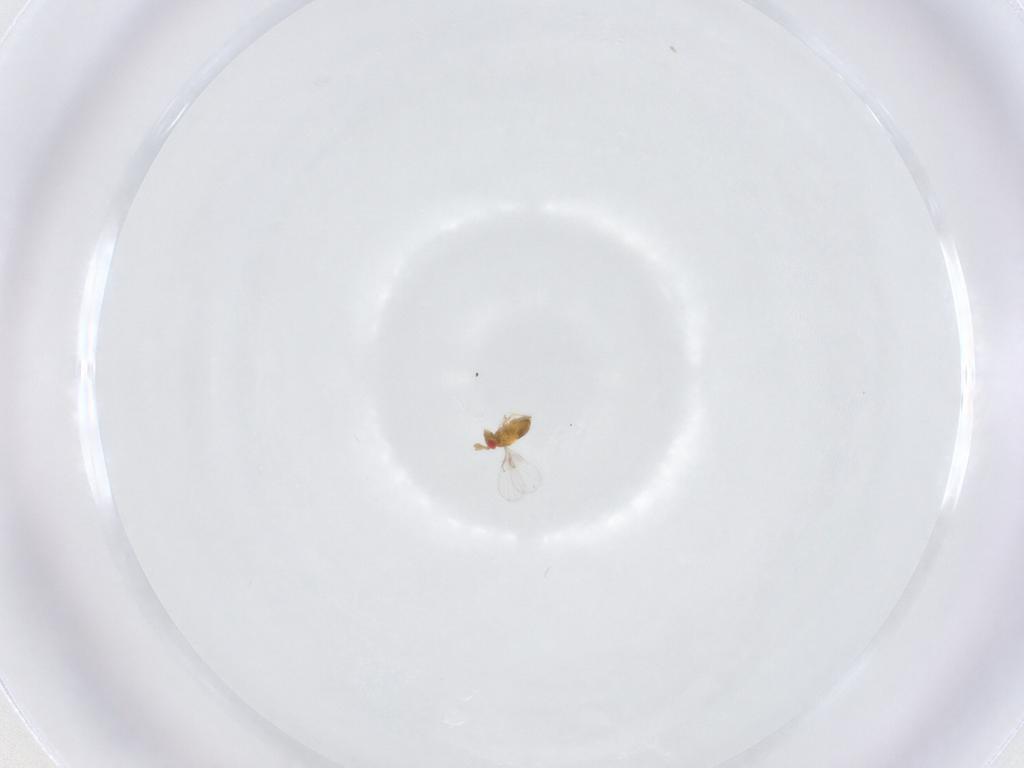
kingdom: Animalia
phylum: Arthropoda
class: Insecta
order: Hymenoptera
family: Trichogrammatidae
